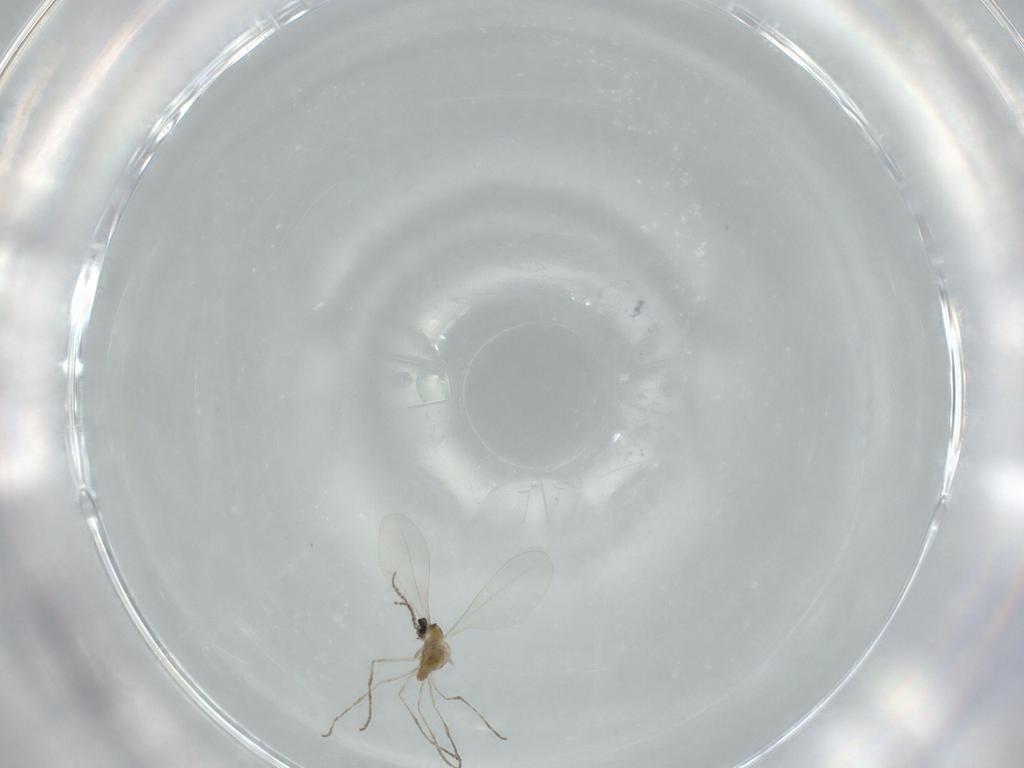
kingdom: Animalia
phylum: Arthropoda
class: Insecta
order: Diptera
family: Cecidomyiidae
